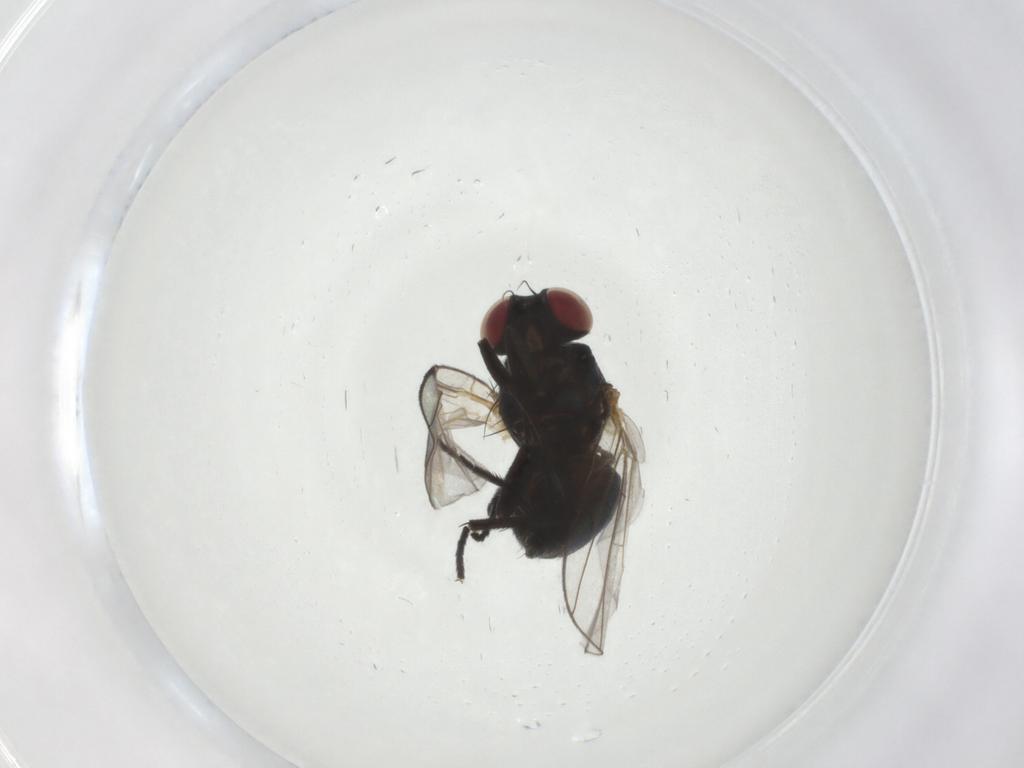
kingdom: Animalia
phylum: Arthropoda
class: Insecta
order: Diptera
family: Agromyzidae
